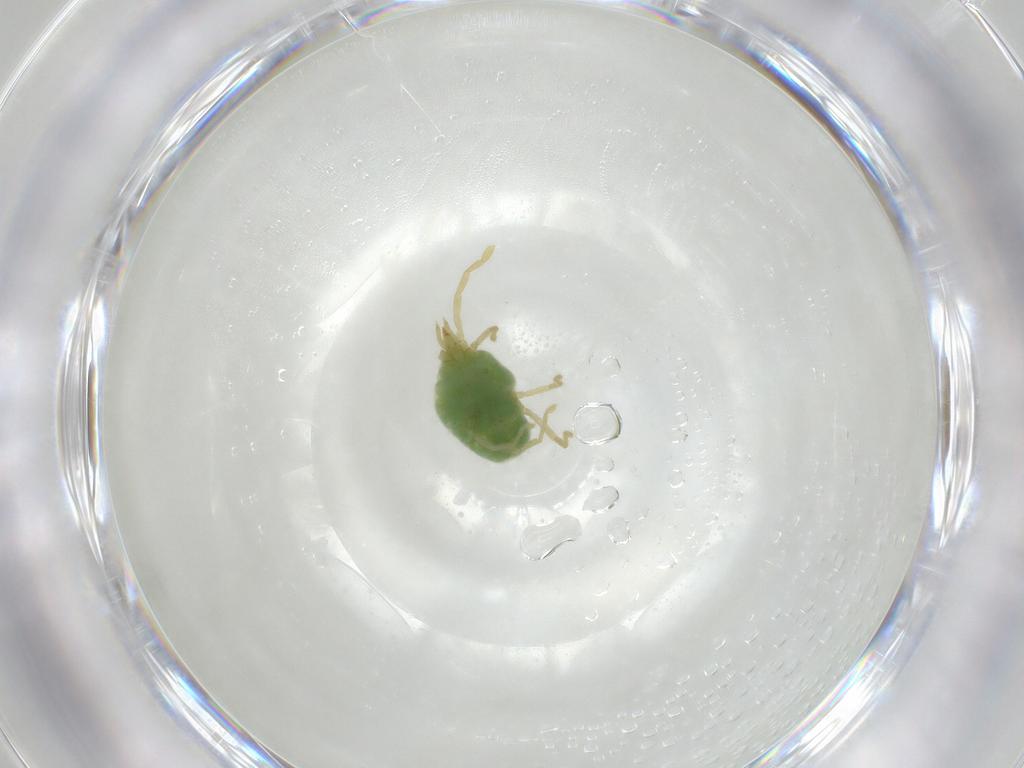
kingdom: Animalia
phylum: Arthropoda
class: Arachnida
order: Trombidiformes
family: Erythraeidae
